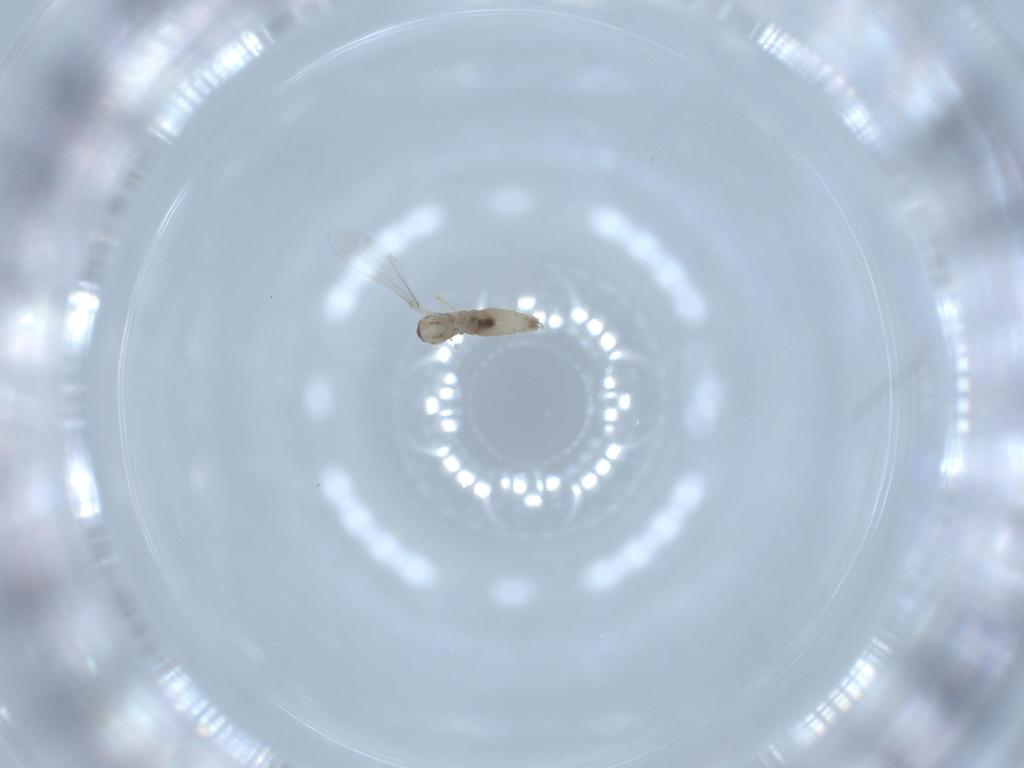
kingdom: Animalia
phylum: Arthropoda
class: Insecta
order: Diptera
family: Cecidomyiidae
